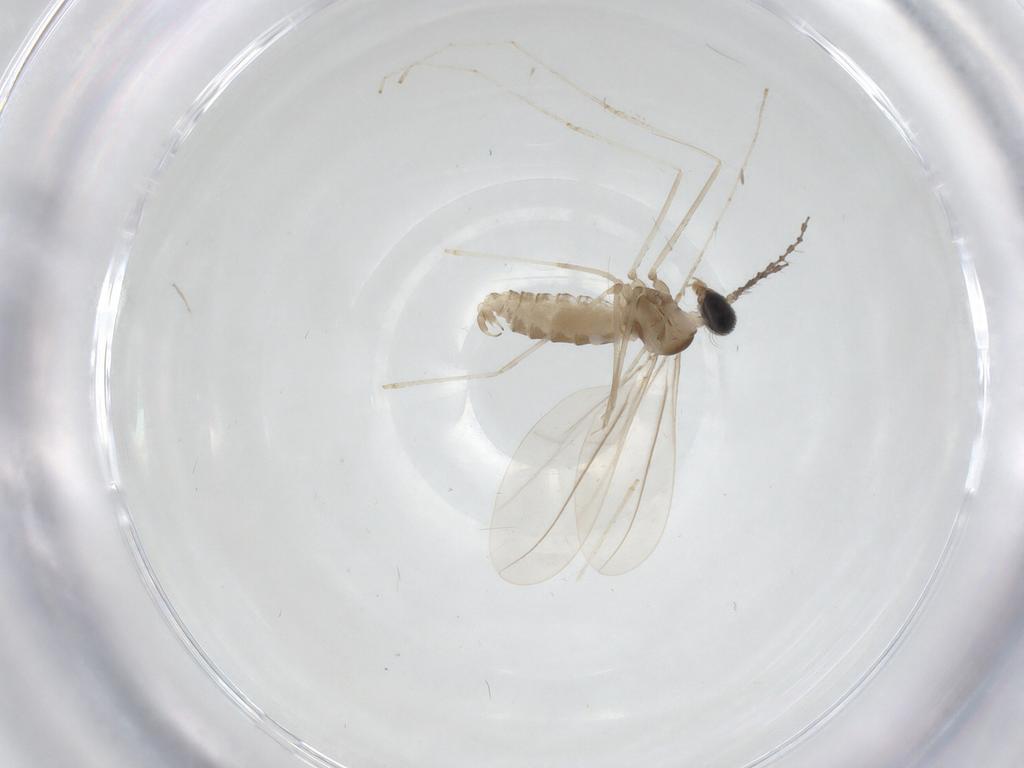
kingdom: Animalia
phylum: Arthropoda
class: Insecta
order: Diptera
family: Cecidomyiidae
